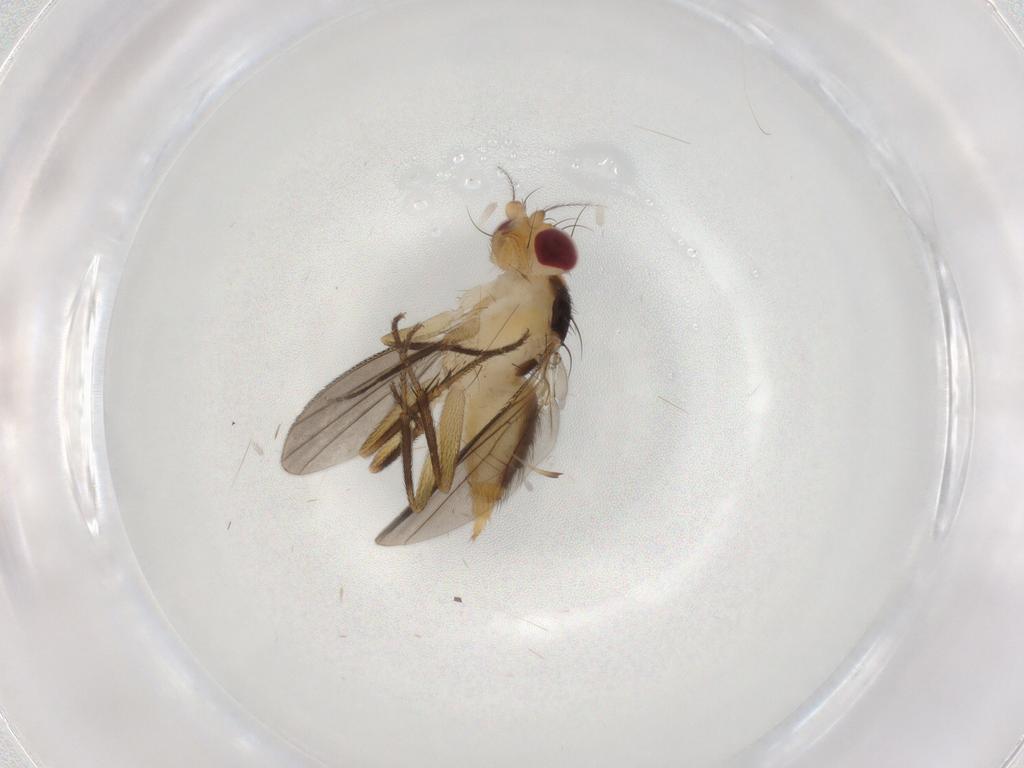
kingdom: Animalia
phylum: Arthropoda
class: Insecta
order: Diptera
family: Clusiidae
